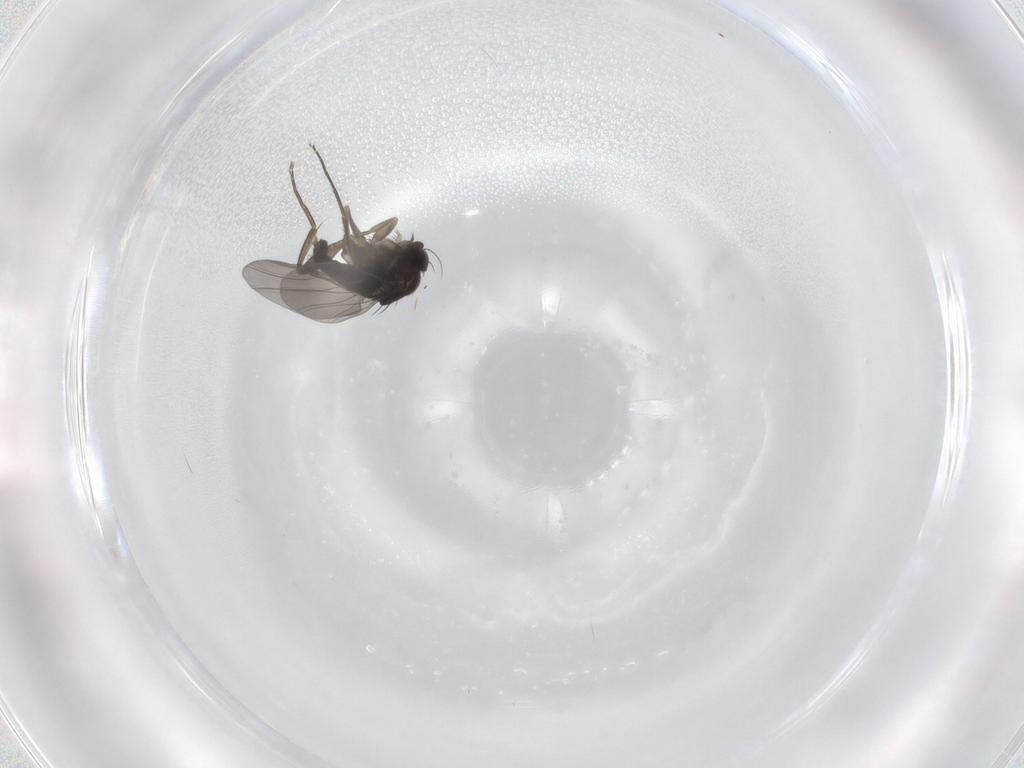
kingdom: Animalia
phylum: Arthropoda
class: Insecta
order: Diptera
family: Phoridae
